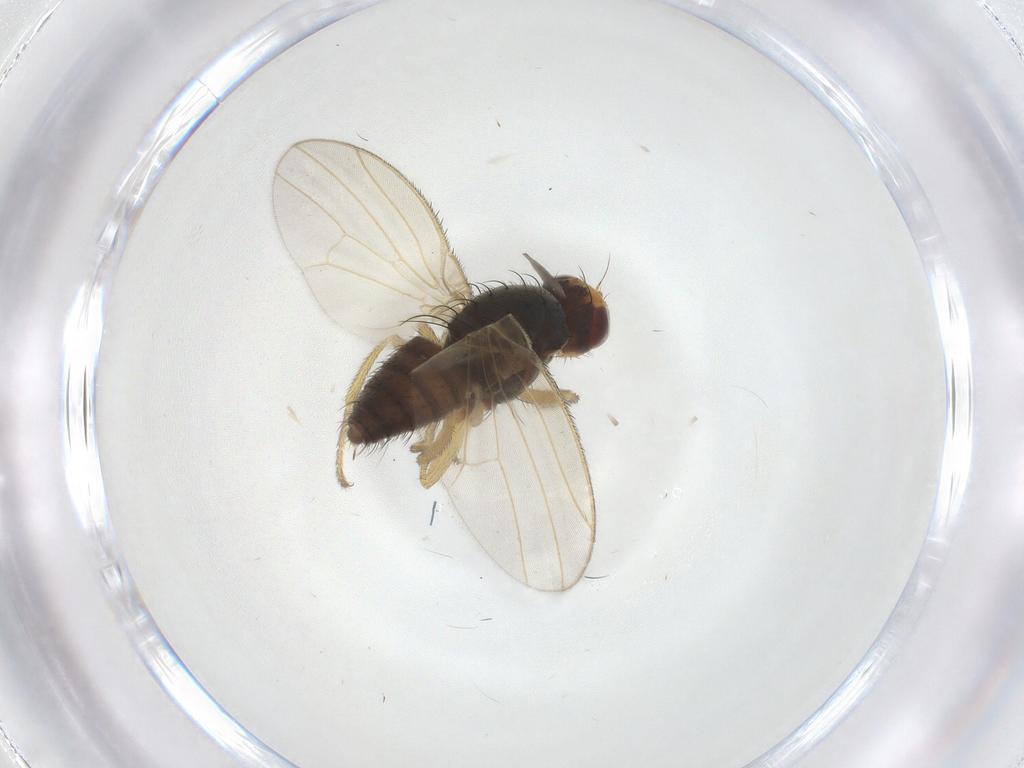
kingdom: Animalia
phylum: Arthropoda
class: Insecta
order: Diptera
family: Heleomyzidae
